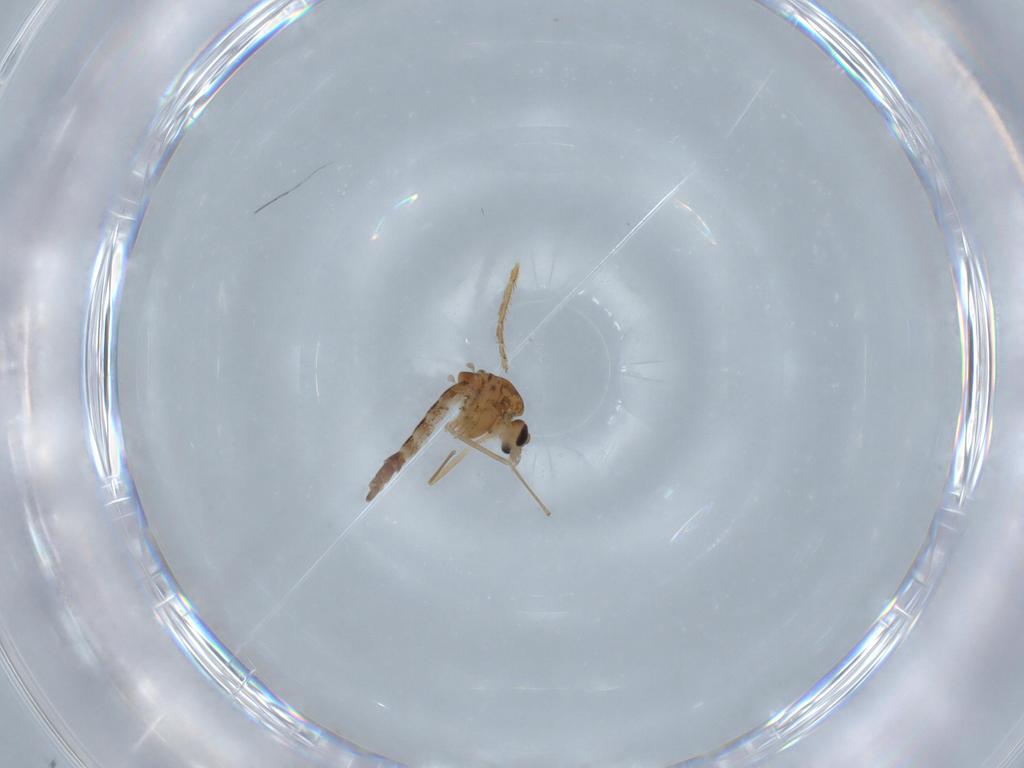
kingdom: Animalia
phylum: Arthropoda
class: Insecta
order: Diptera
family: Chironomidae
